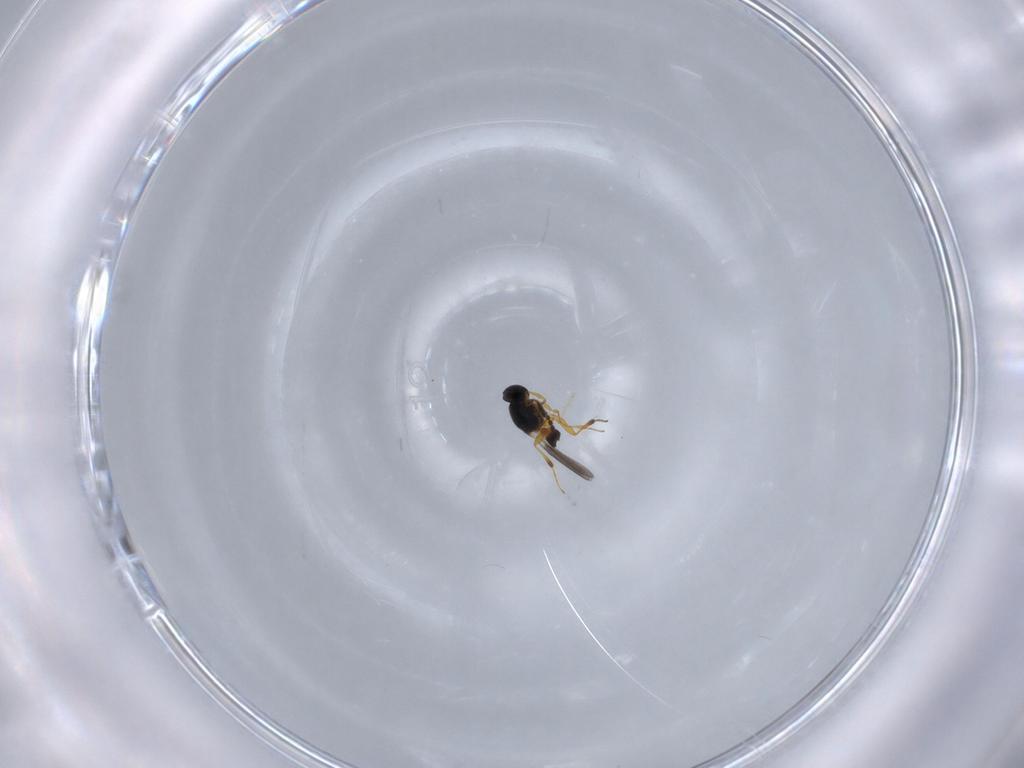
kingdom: Animalia
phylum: Arthropoda
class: Insecta
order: Hymenoptera
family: Platygastridae
